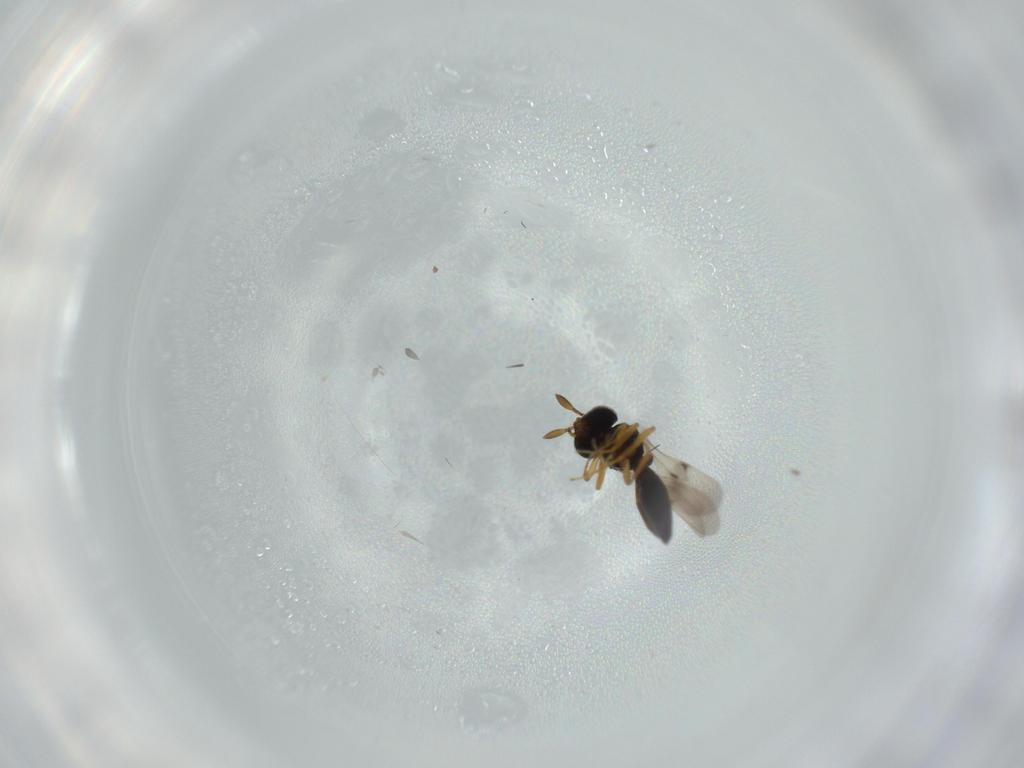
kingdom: Animalia
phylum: Arthropoda
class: Insecta
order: Hymenoptera
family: Scelionidae
